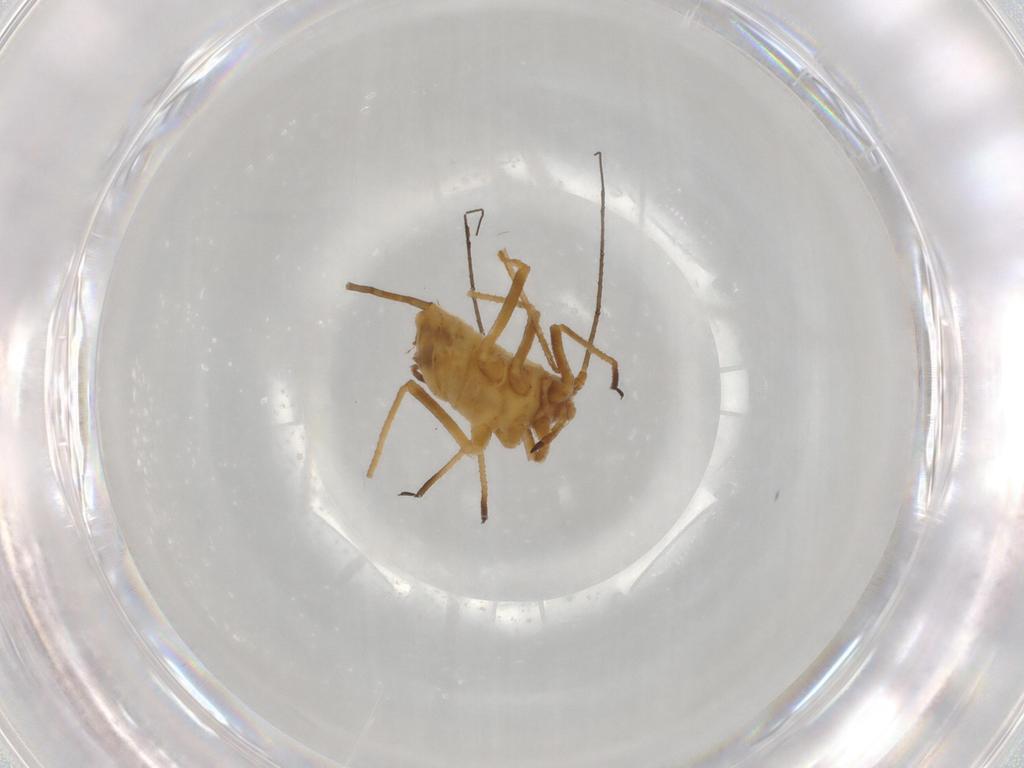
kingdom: Animalia
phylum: Arthropoda
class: Insecta
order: Hemiptera
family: Aphididae
